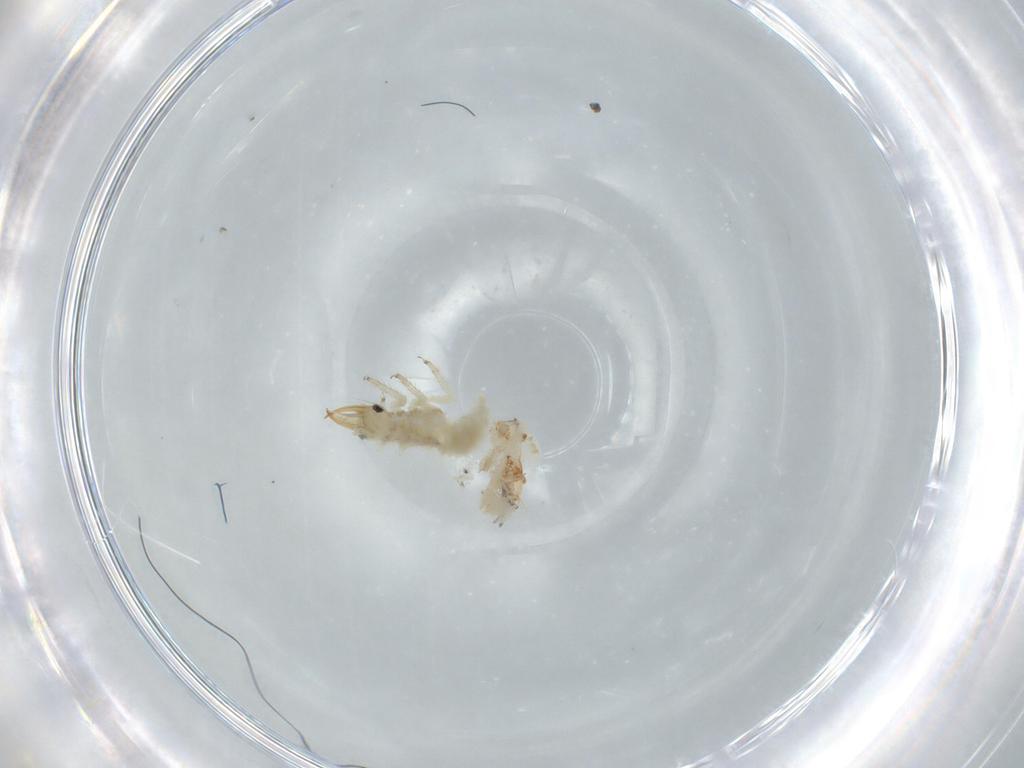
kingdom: Animalia
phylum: Arthropoda
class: Insecta
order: Neuroptera
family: Chrysopidae
